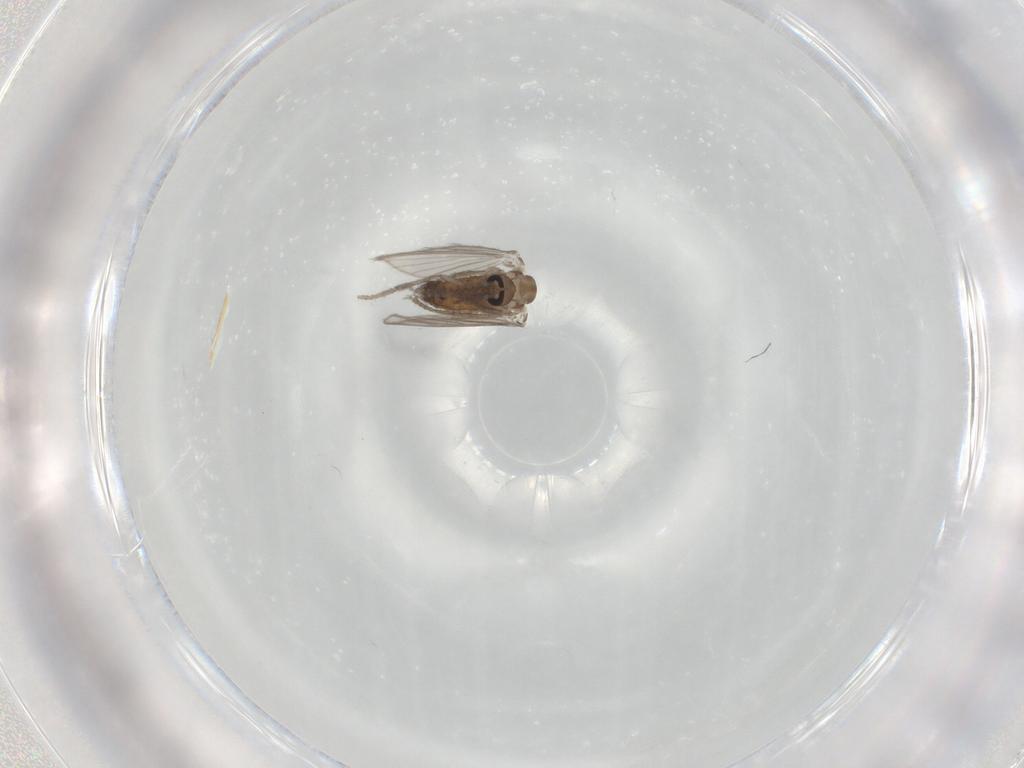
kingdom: Animalia
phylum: Arthropoda
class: Insecta
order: Diptera
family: Psychodidae
